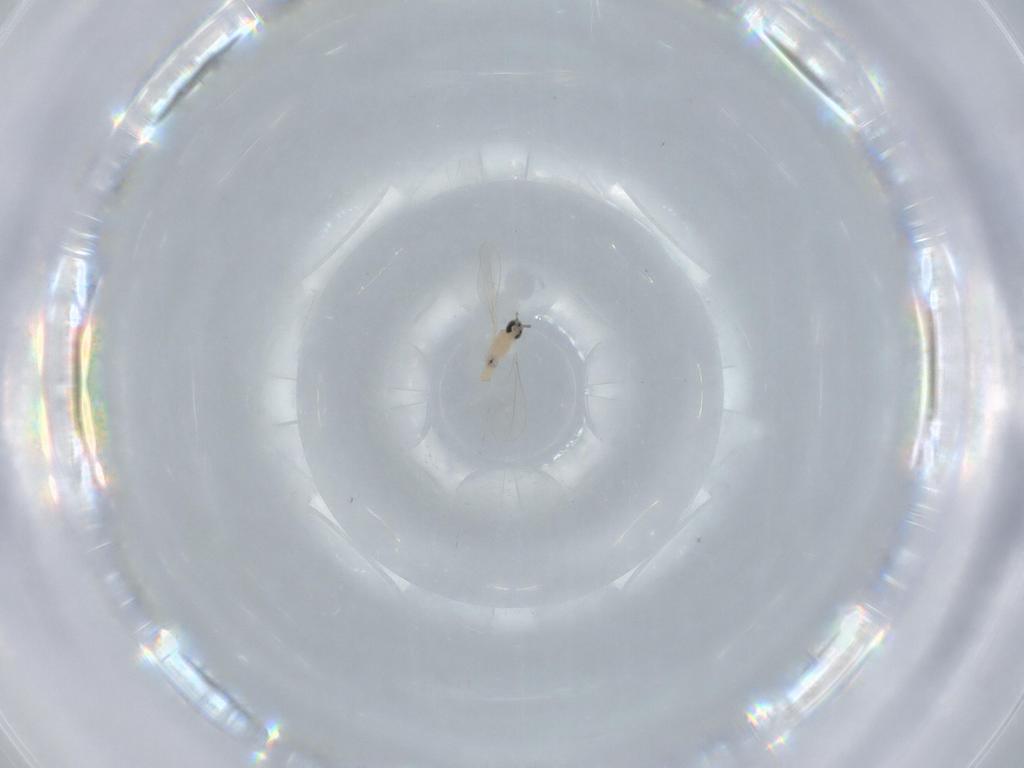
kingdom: Animalia
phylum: Arthropoda
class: Insecta
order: Diptera
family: Cecidomyiidae
